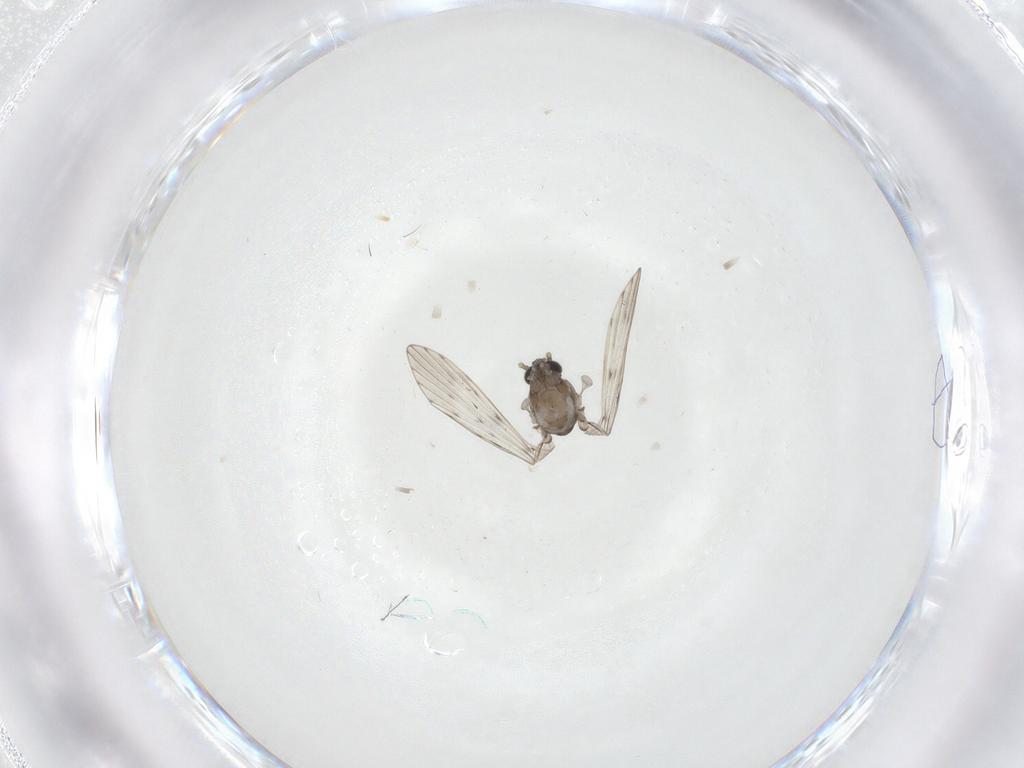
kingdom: Animalia
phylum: Arthropoda
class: Insecta
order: Diptera
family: Psychodidae
